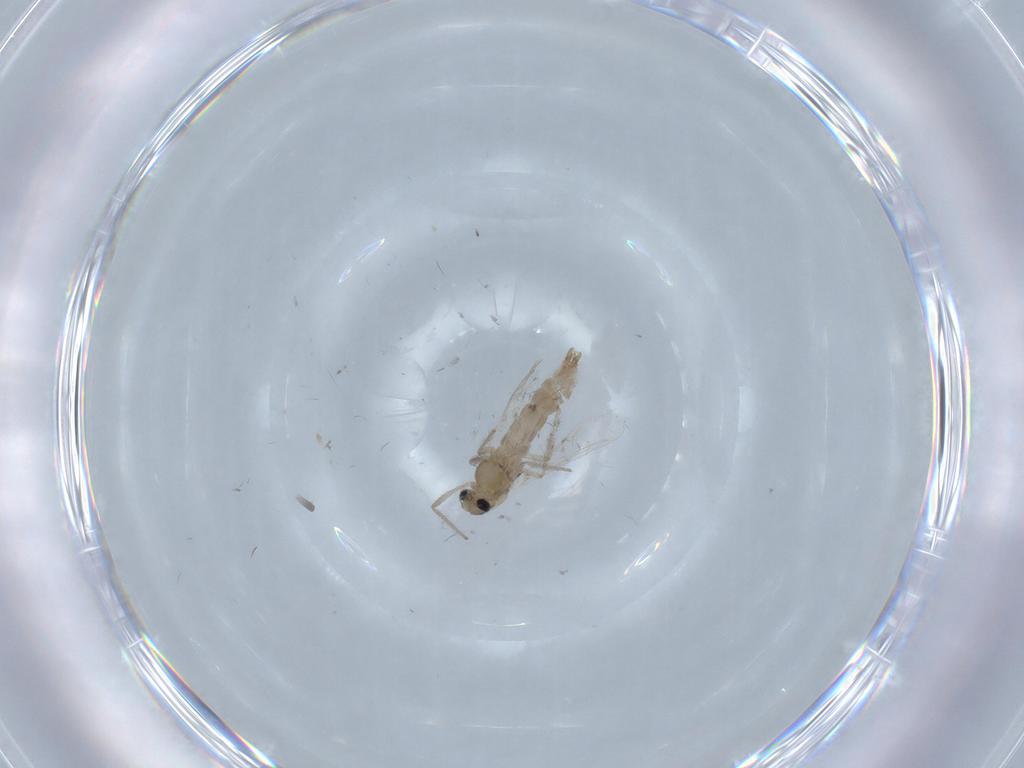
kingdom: Animalia
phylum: Arthropoda
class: Insecta
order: Diptera
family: Chironomidae
